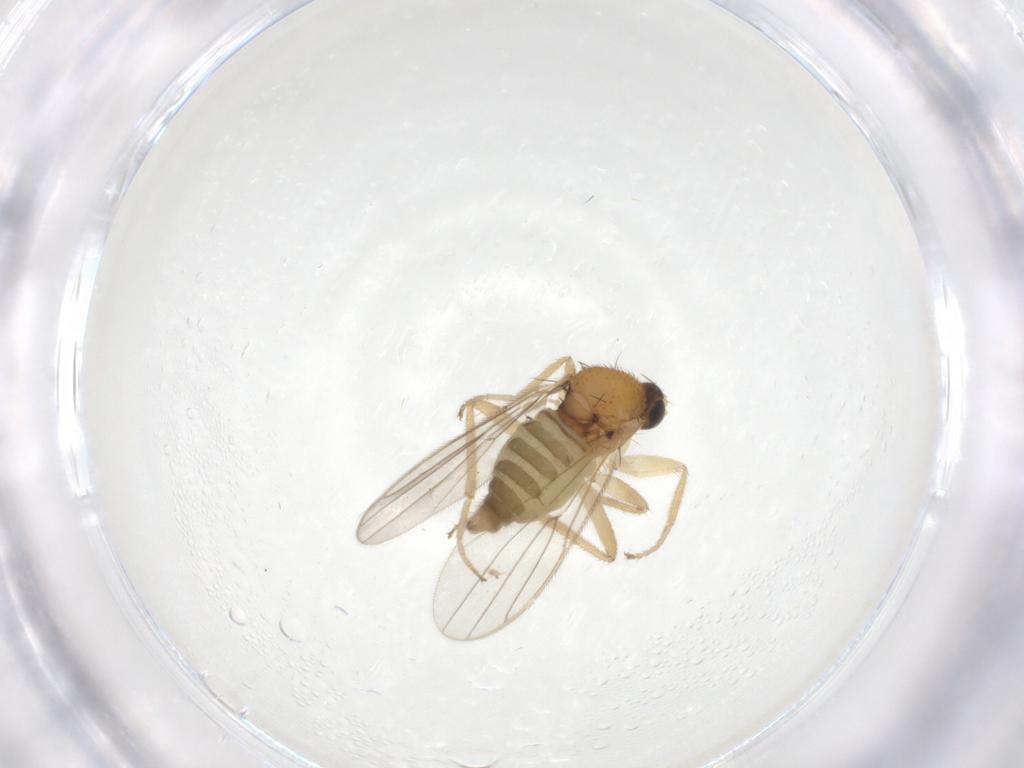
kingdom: Animalia
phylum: Arthropoda
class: Insecta
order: Diptera
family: Hybotidae
